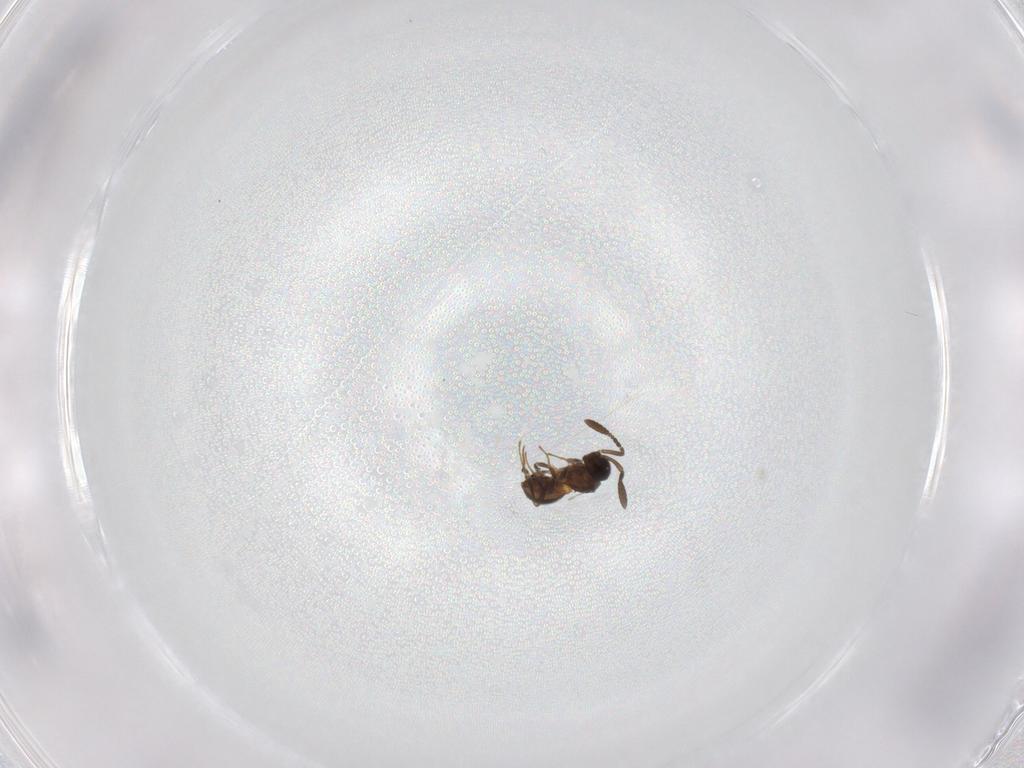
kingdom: Animalia
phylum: Arthropoda
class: Insecta
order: Hymenoptera
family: Scelionidae
